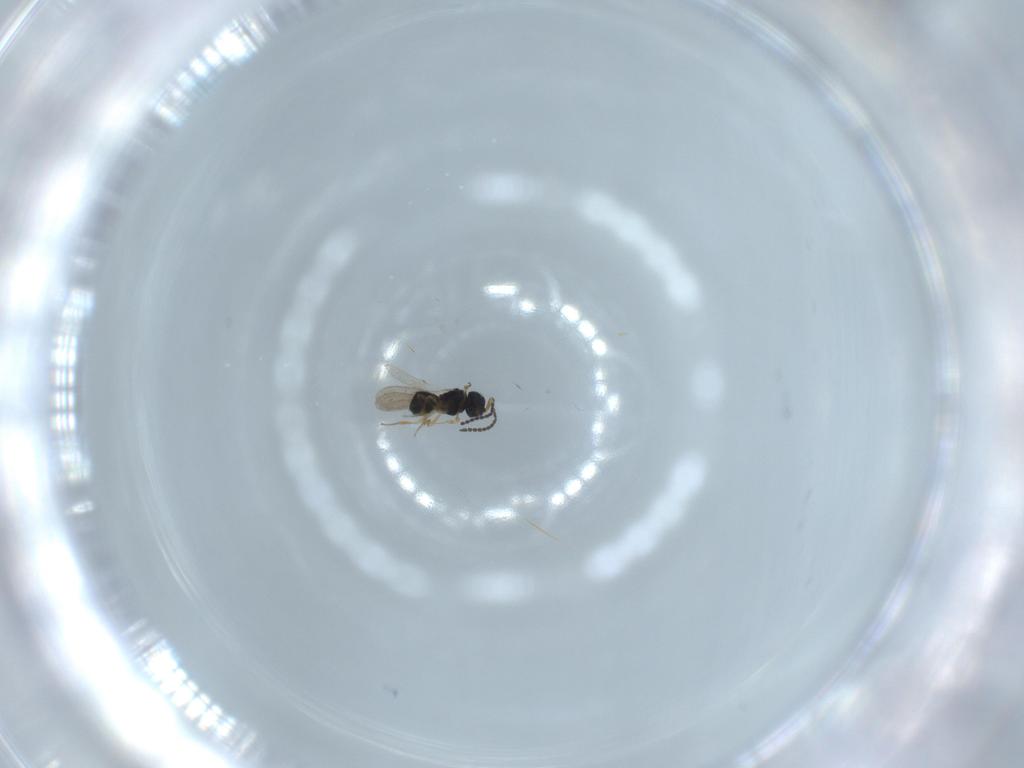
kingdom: Animalia
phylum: Arthropoda
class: Insecta
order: Hymenoptera
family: Scelionidae
